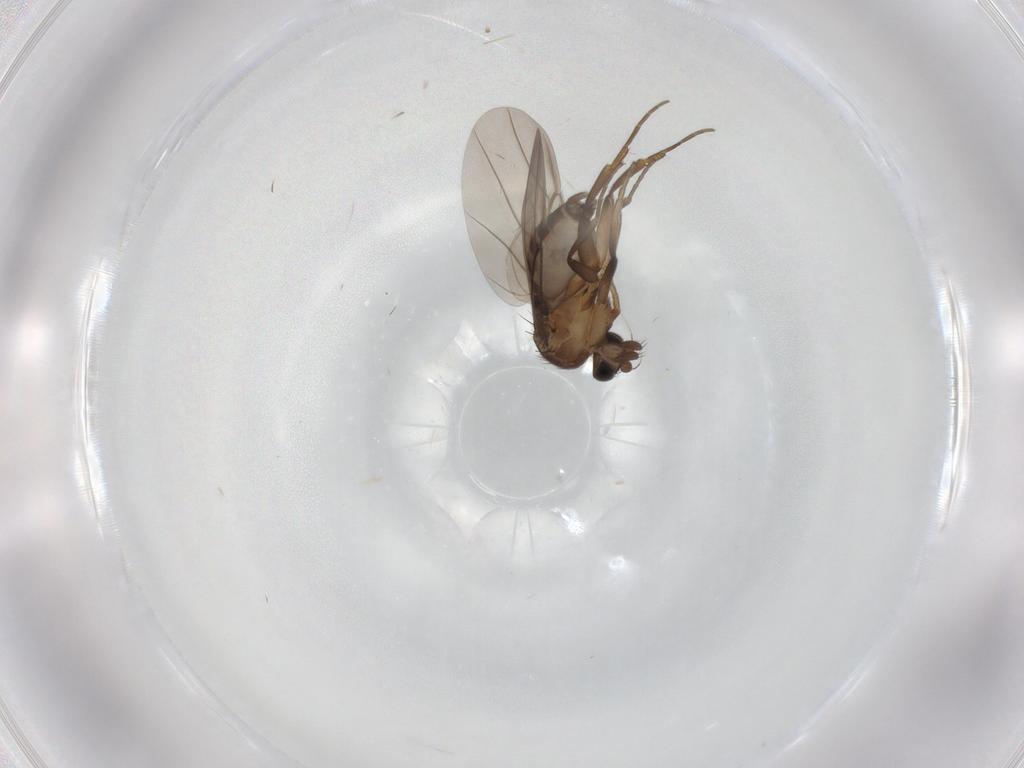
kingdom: Animalia
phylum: Arthropoda
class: Insecta
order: Diptera
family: Phoridae
